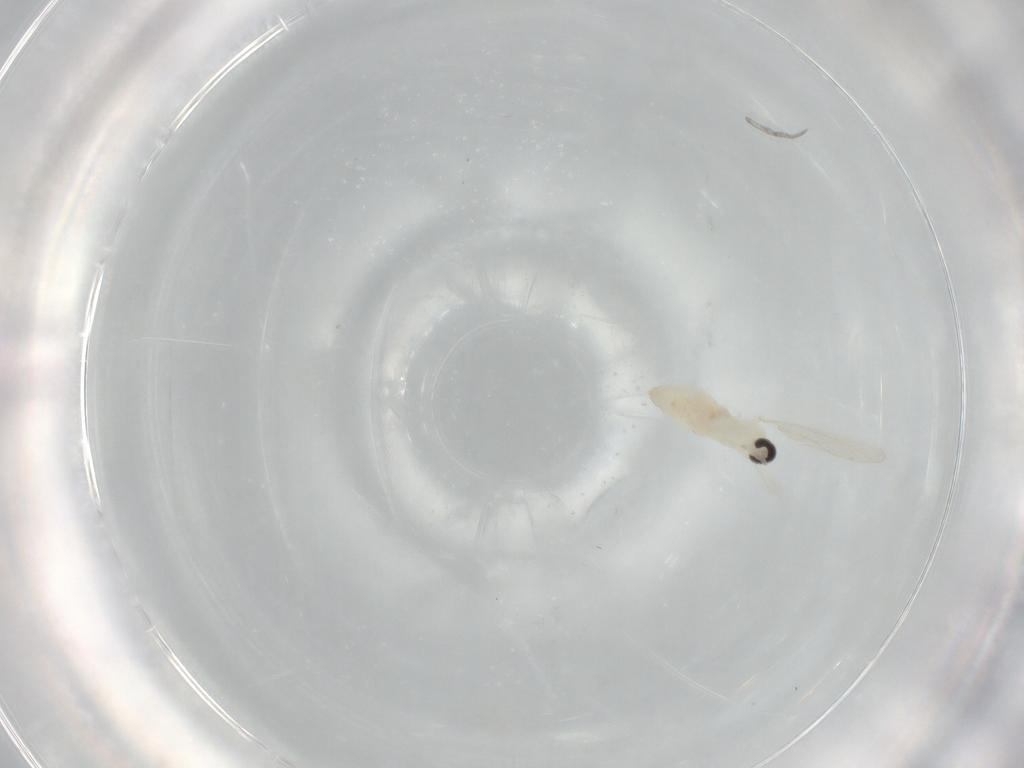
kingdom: Animalia
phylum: Arthropoda
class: Insecta
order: Diptera
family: Cecidomyiidae
